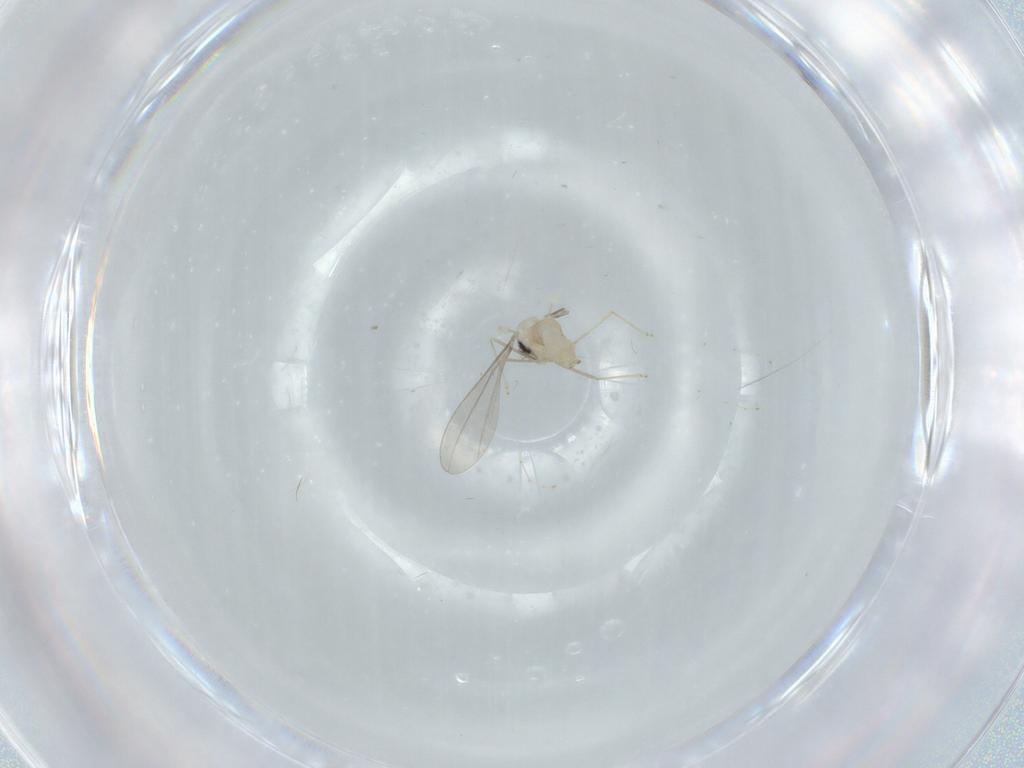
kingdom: Animalia
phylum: Arthropoda
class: Insecta
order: Diptera
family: Cecidomyiidae
